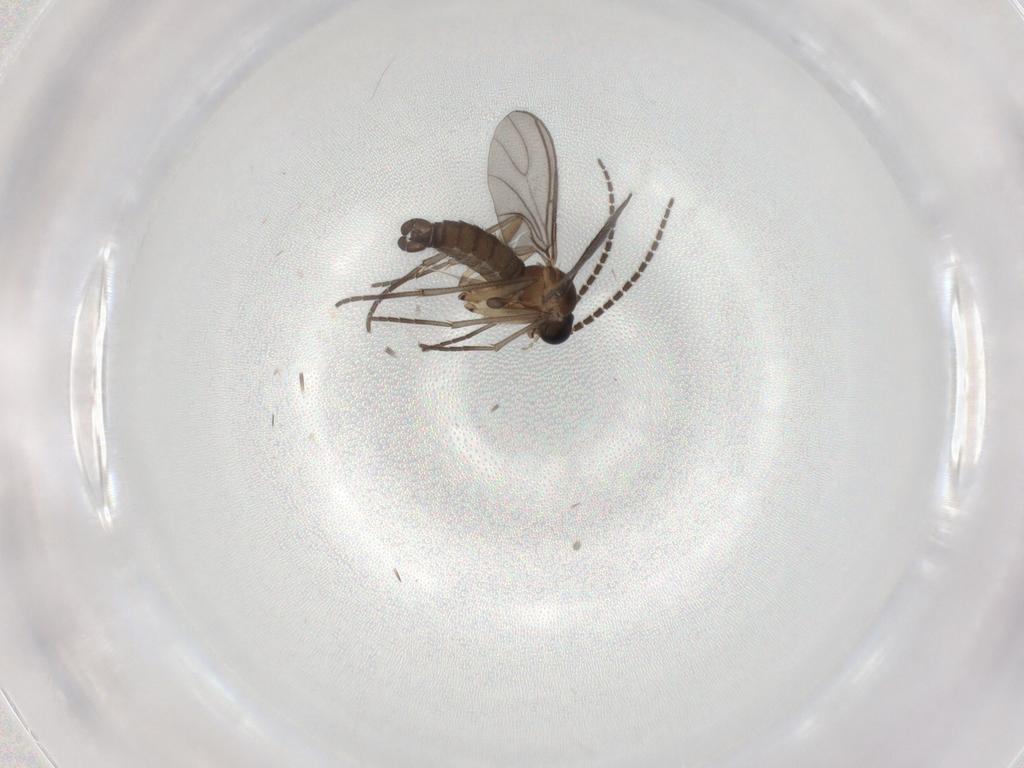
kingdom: Animalia
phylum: Arthropoda
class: Insecta
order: Diptera
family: Sciaridae
